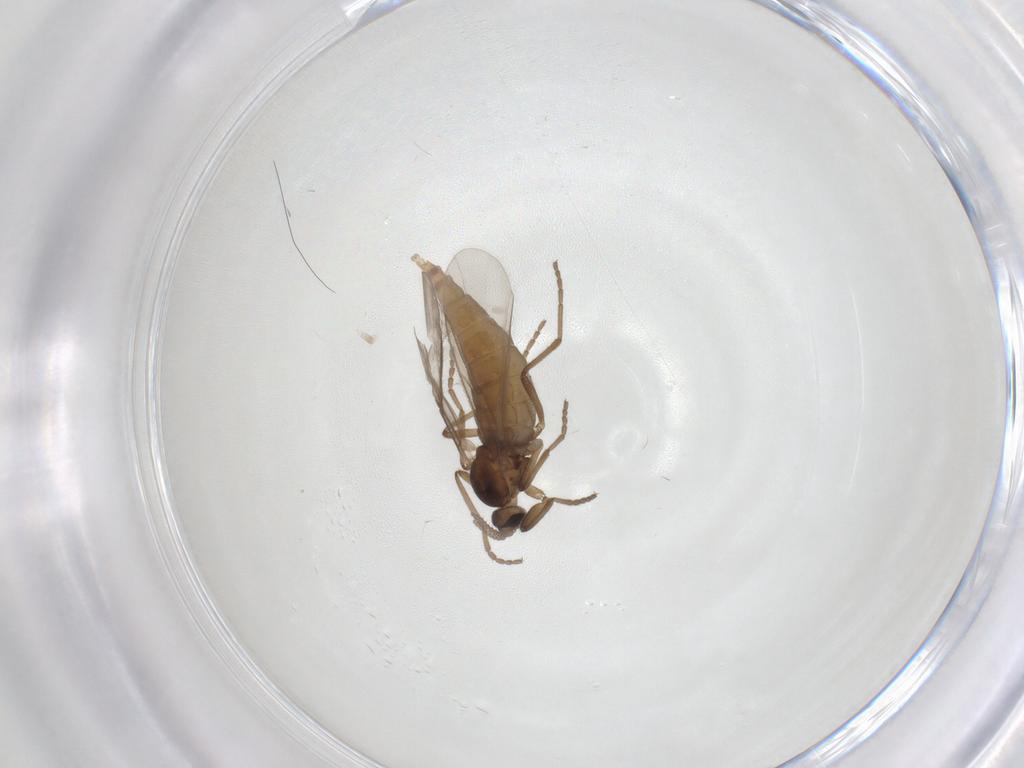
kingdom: Animalia
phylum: Arthropoda
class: Insecta
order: Diptera
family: Cecidomyiidae
